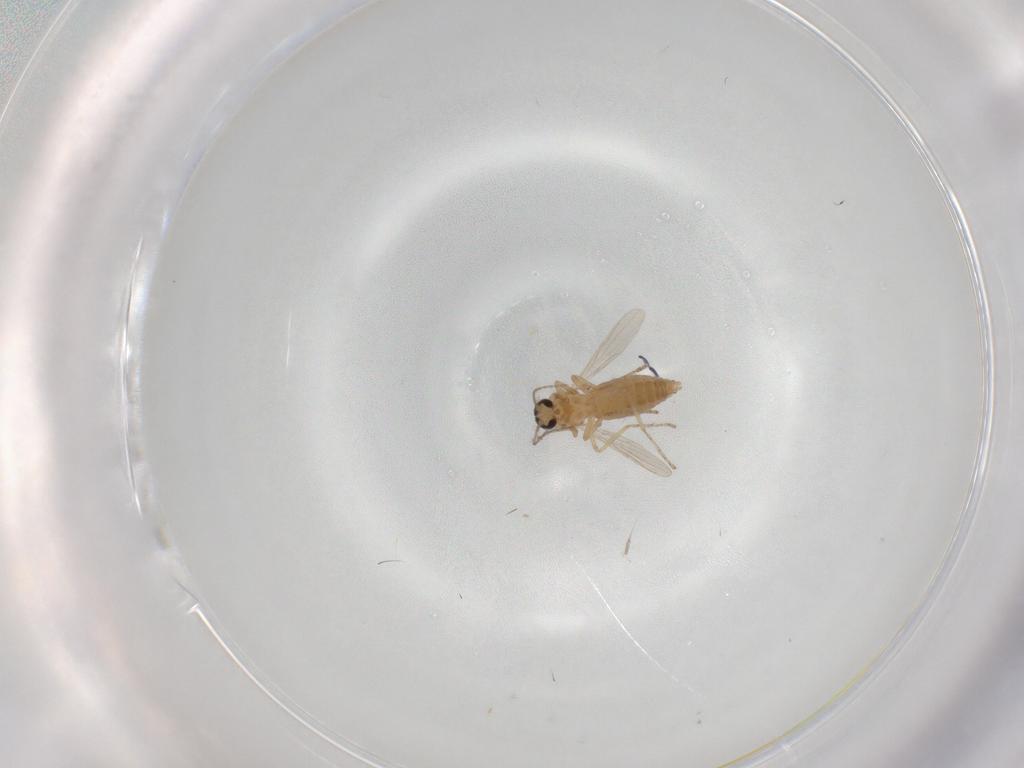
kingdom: Animalia
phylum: Arthropoda
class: Insecta
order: Diptera
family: Ceratopogonidae
